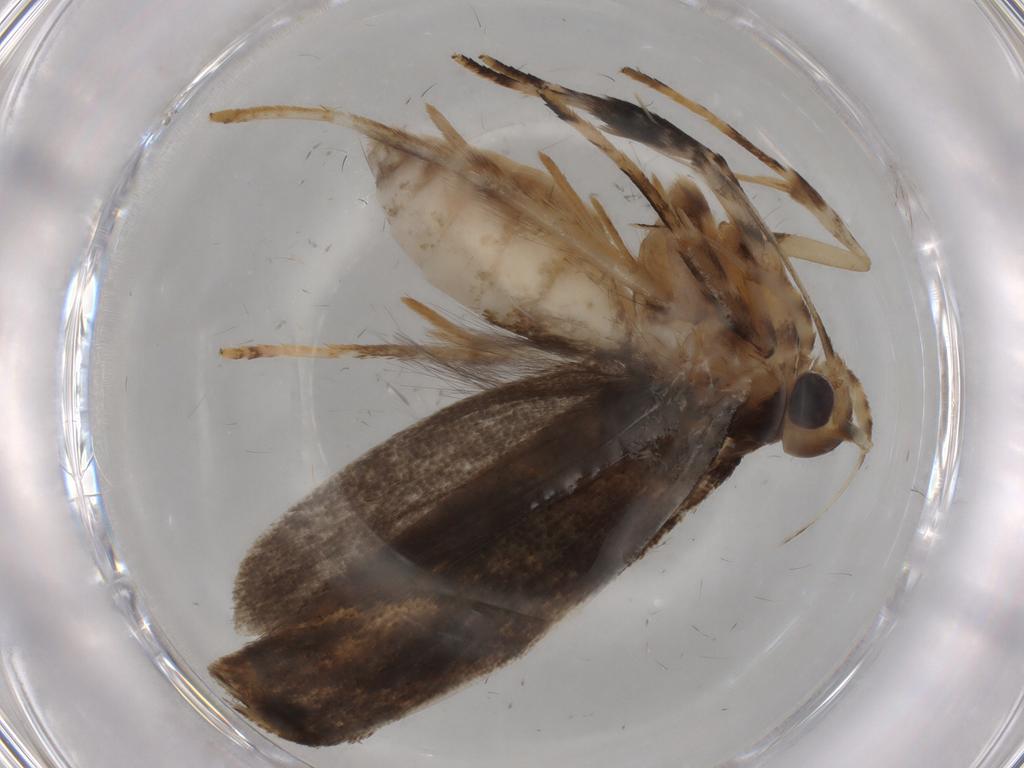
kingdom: Animalia
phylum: Arthropoda
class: Insecta
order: Lepidoptera
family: Gelechiidae
